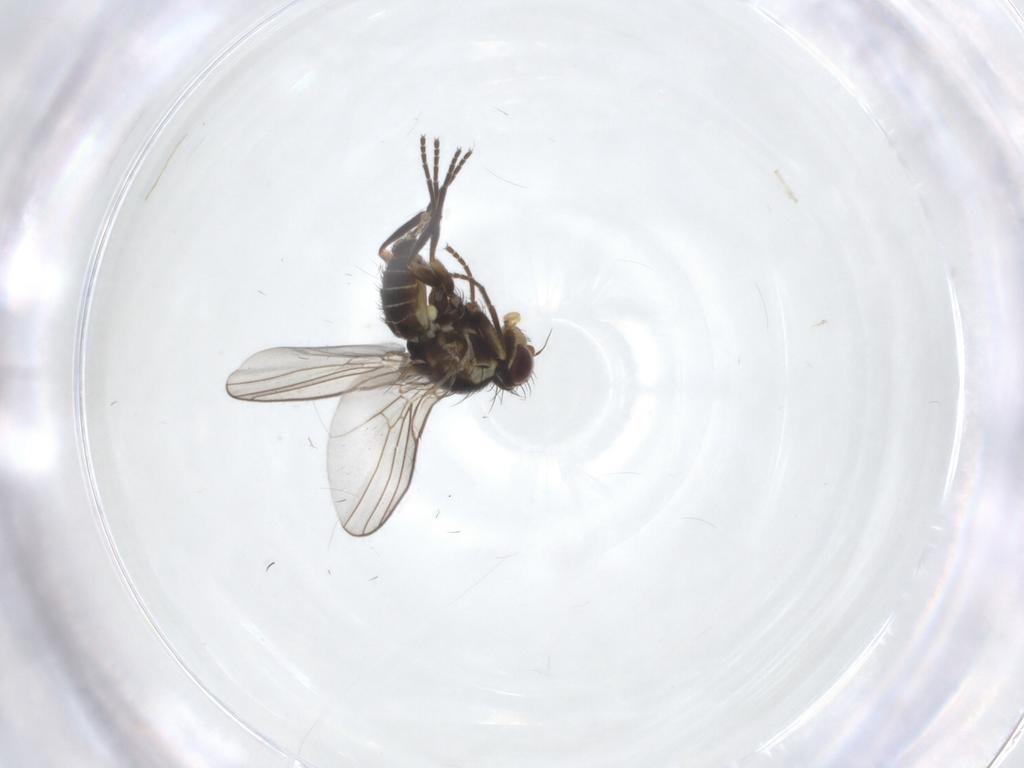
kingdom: Animalia
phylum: Arthropoda
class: Insecta
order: Diptera
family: Agromyzidae
